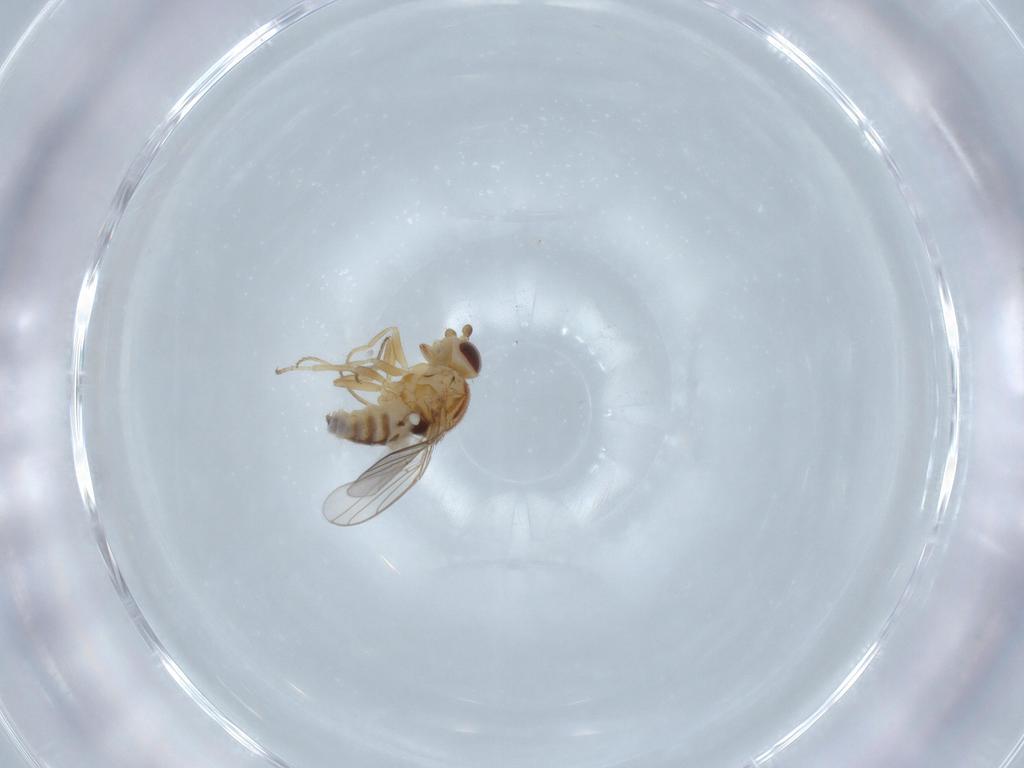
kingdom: Animalia
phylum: Arthropoda
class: Insecta
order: Diptera
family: Chloropidae
